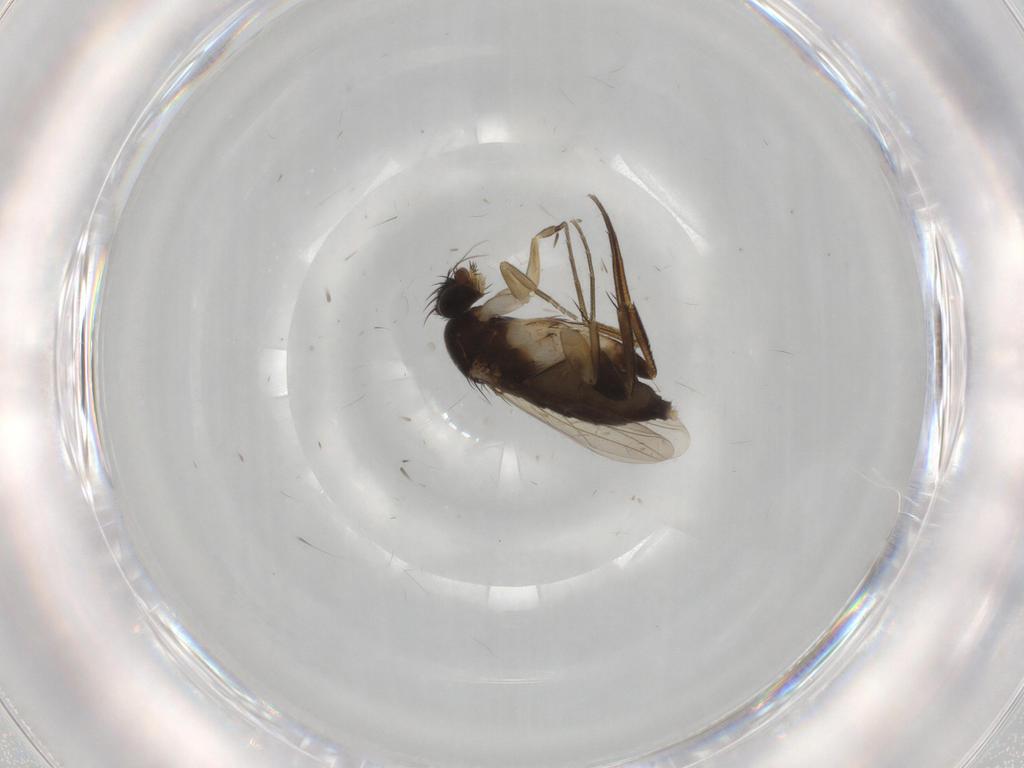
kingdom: Animalia
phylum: Arthropoda
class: Insecta
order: Diptera
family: Phoridae
